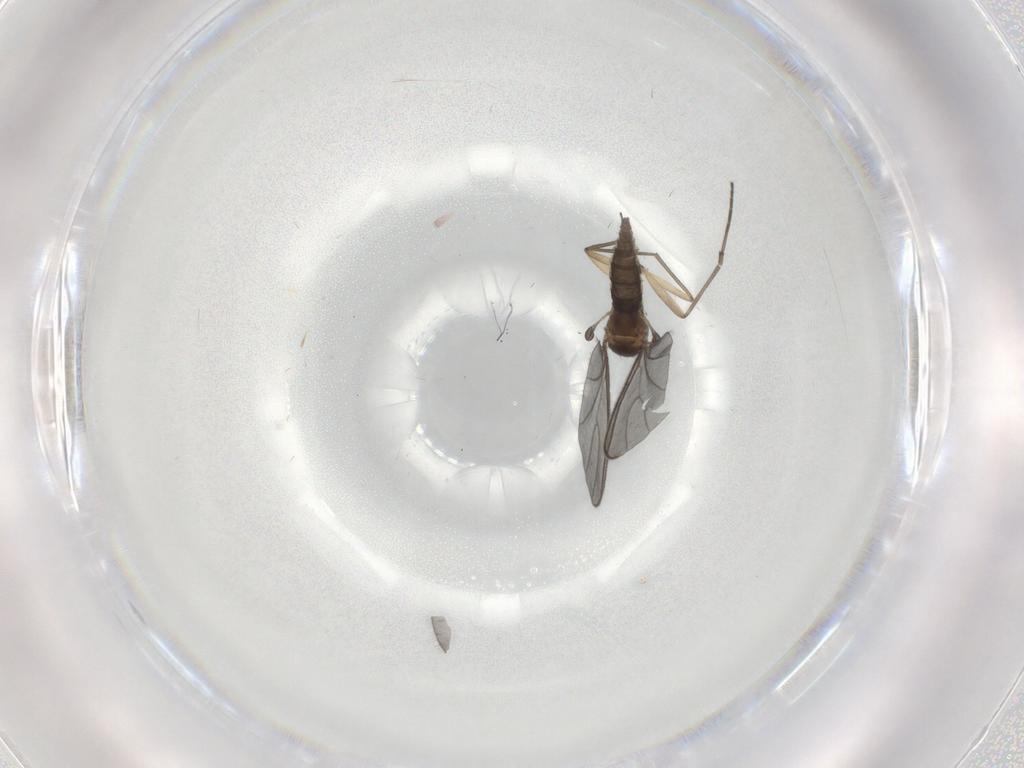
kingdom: Animalia
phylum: Arthropoda
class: Insecta
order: Diptera
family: Sciaridae
